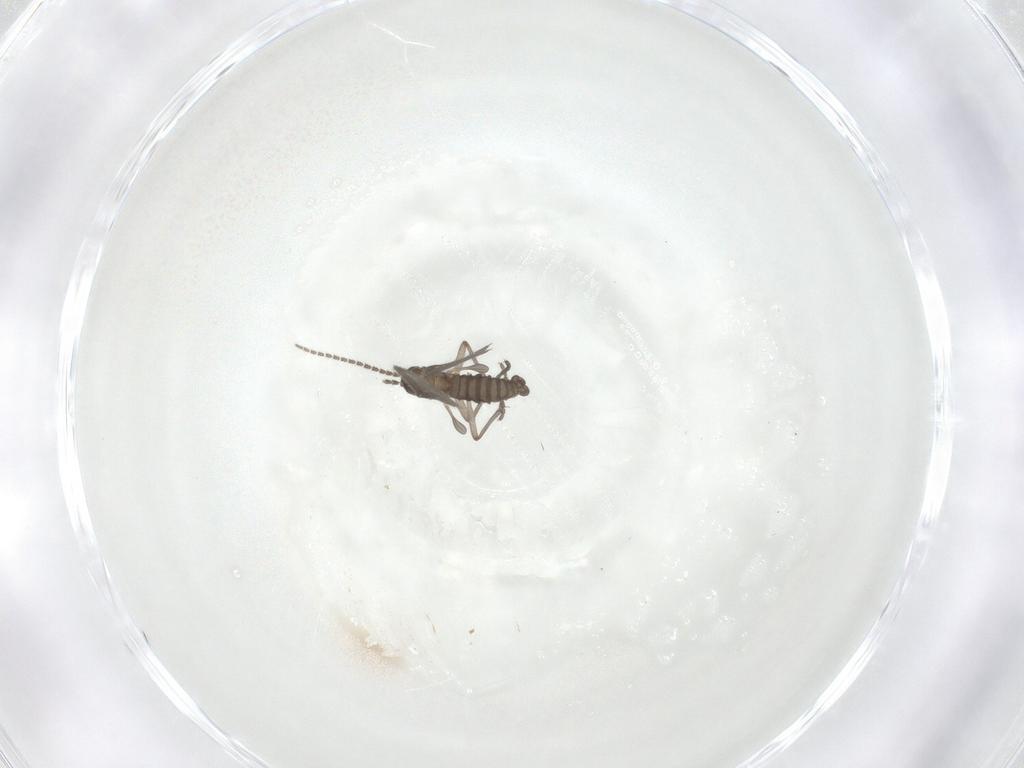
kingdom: Animalia
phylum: Arthropoda
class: Insecta
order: Diptera
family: Sciaridae
